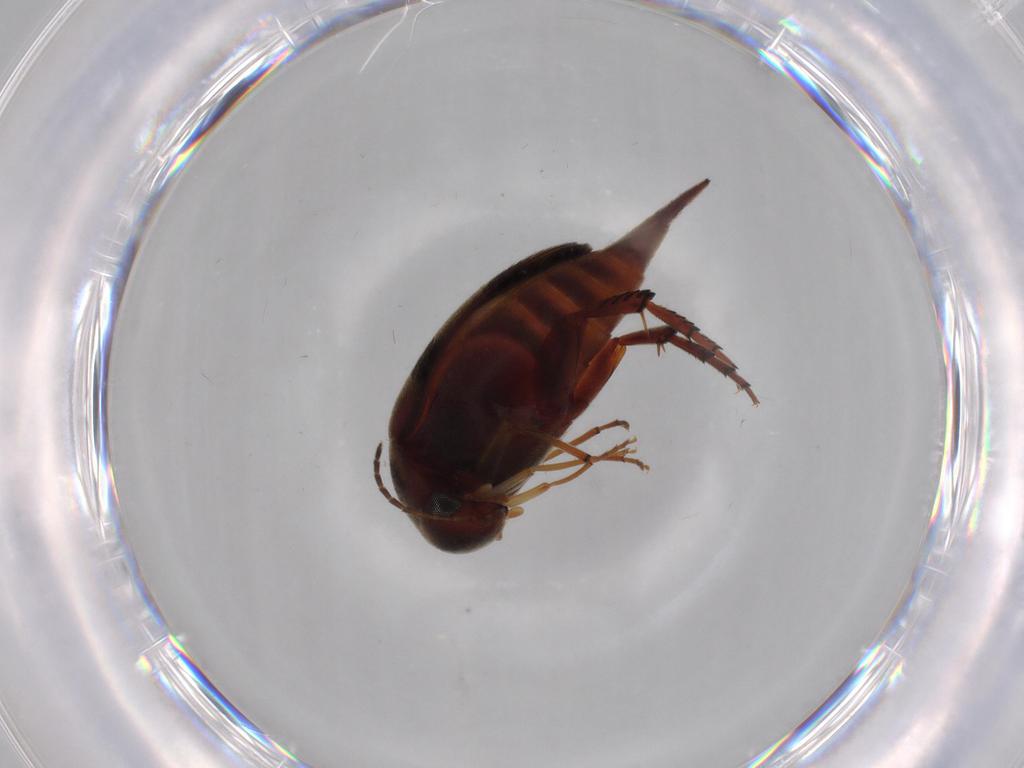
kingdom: Animalia
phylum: Arthropoda
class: Insecta
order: Coleoptera
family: Mordellidae
